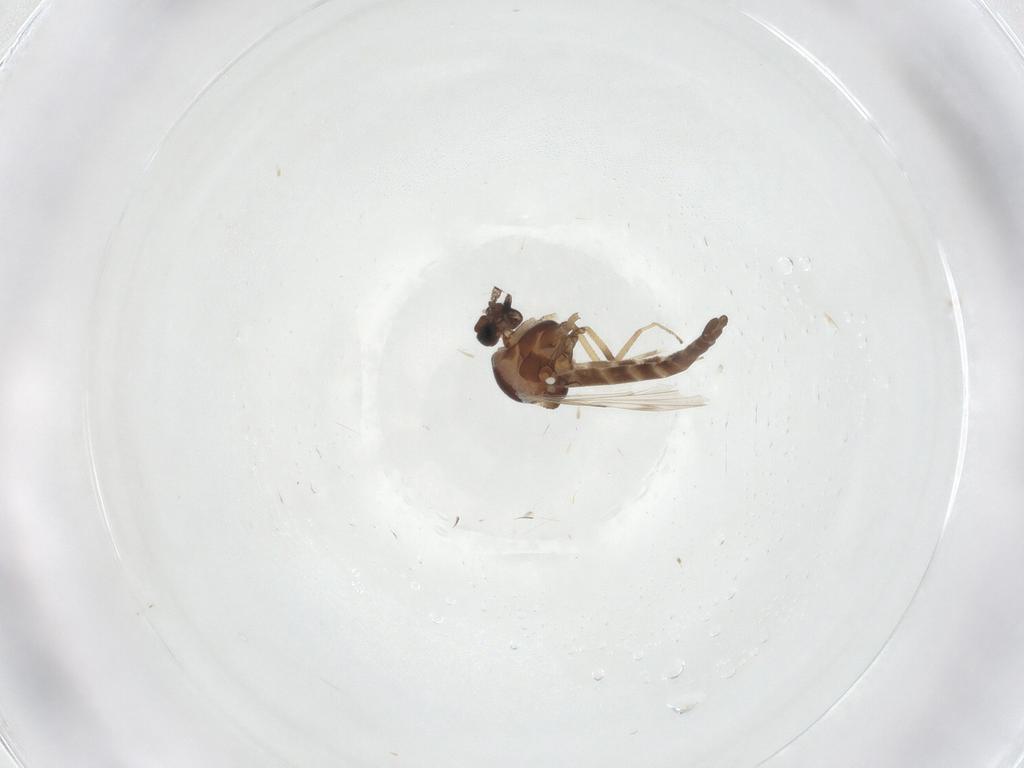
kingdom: Animalia
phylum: Arthropoda
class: Insecta
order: Diptera
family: Ceratopogonidae
